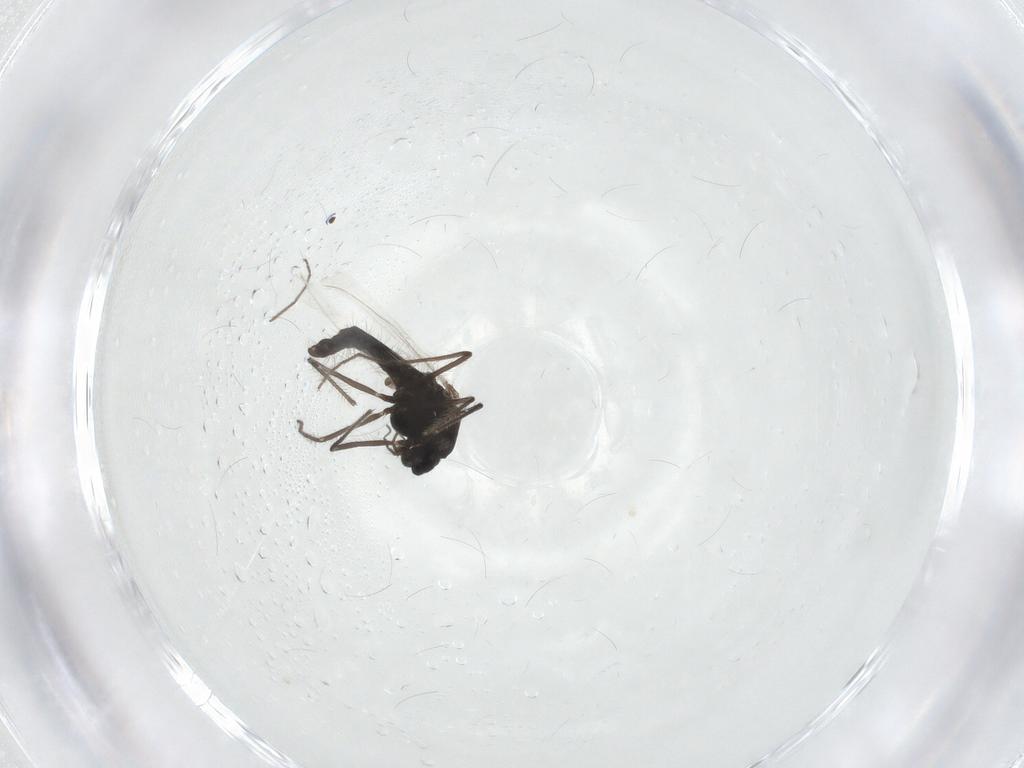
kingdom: Animalia
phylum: Arthropoda
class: Insecta
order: Diptera
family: Chironomidae
